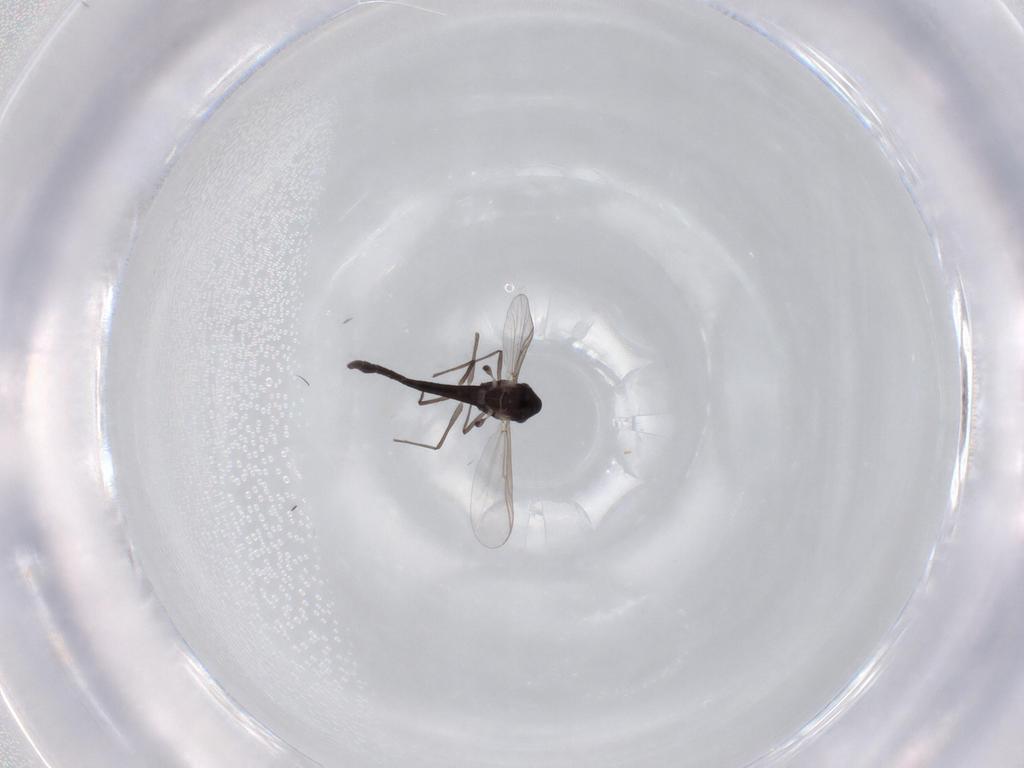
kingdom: Animalia
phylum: Arthropoda
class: Insecta
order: Diptera
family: Chironomidae
